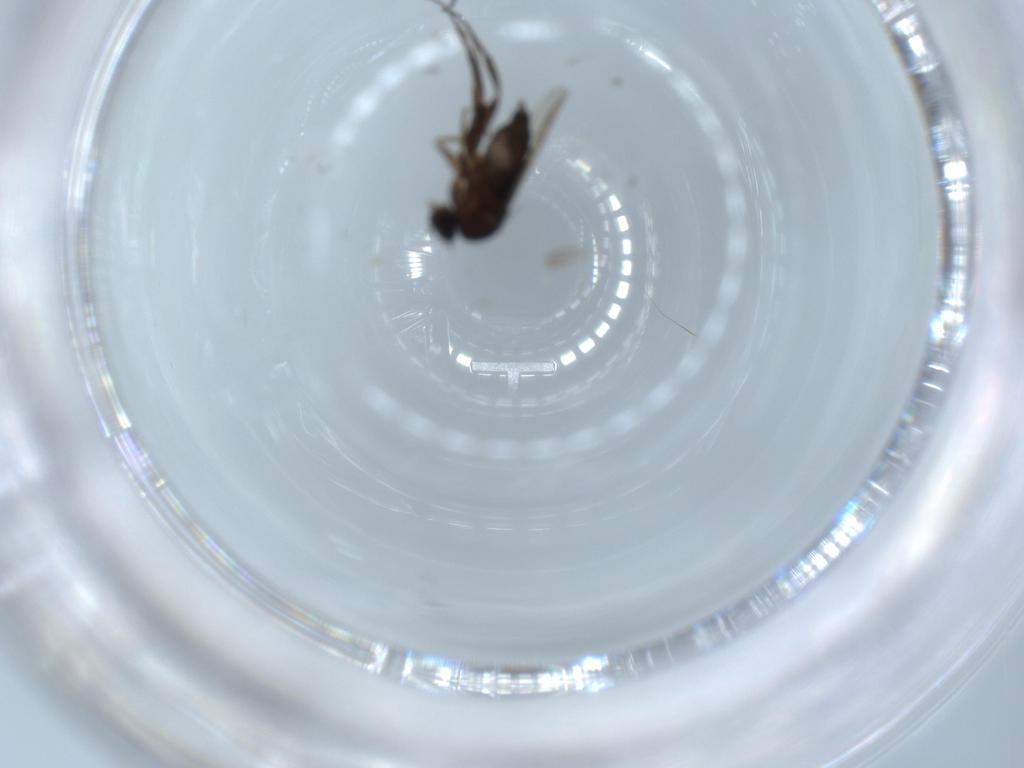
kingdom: Animalia
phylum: Arthropoda
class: Insecta
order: Diptera
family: Phoridae
